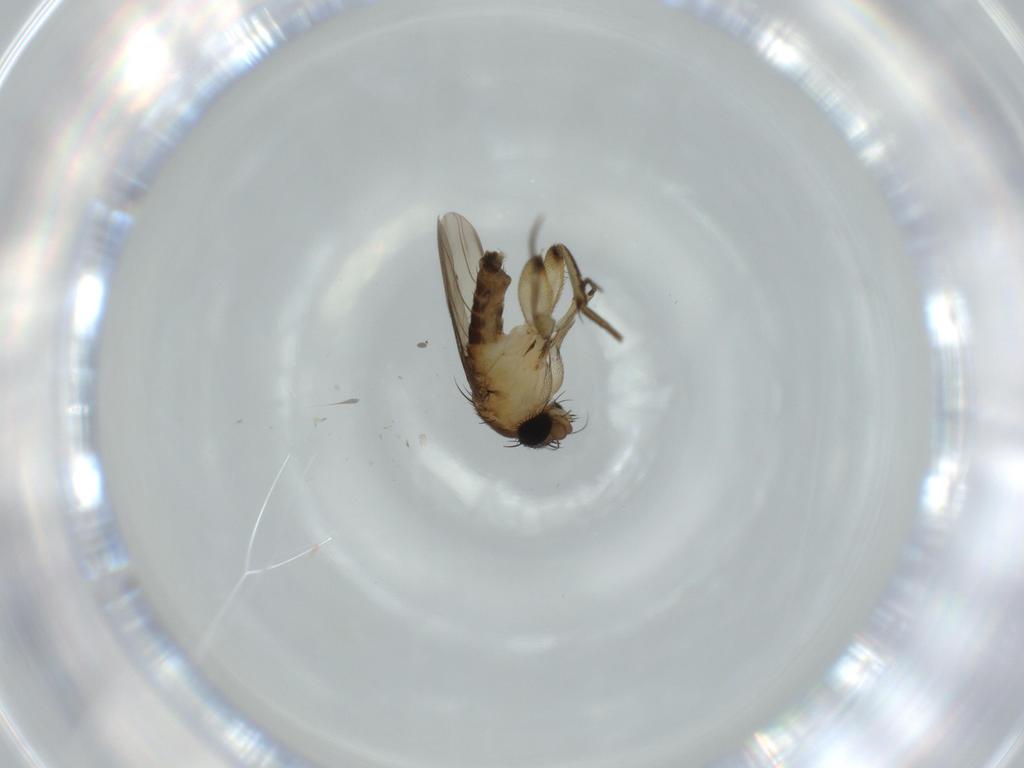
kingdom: Animalia
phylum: Arthropoda
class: Insecta
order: Diptera
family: Phoridae
